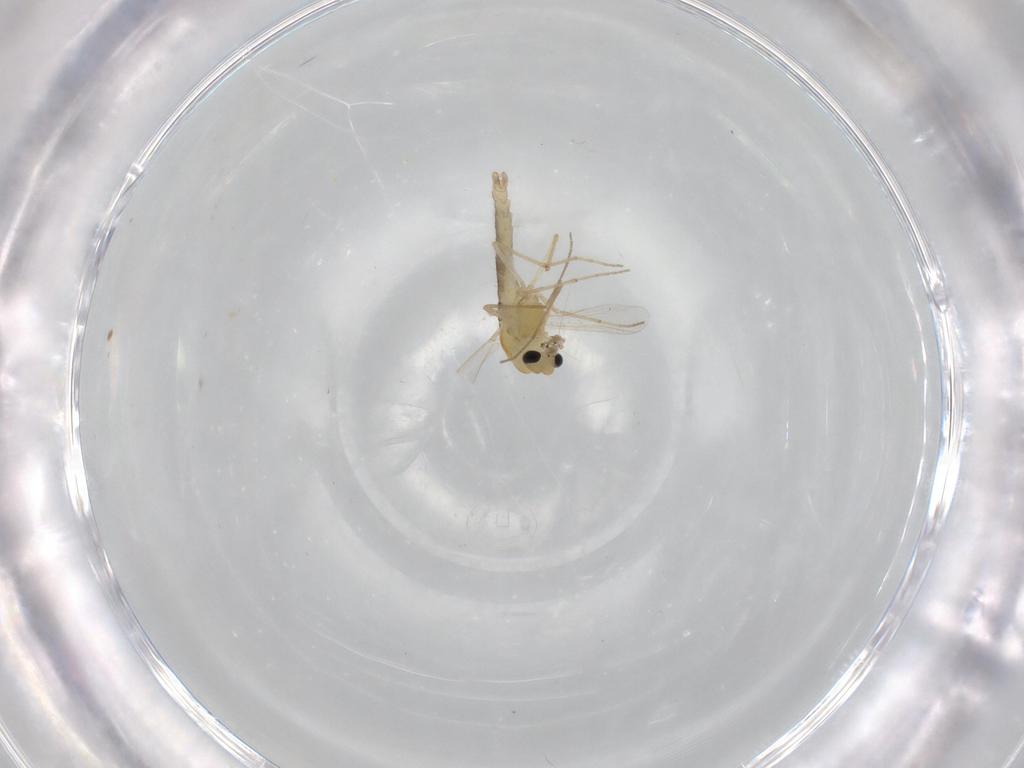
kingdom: Animalia
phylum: Arthropoda
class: Insecta
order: Diptera
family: Chironomidae
